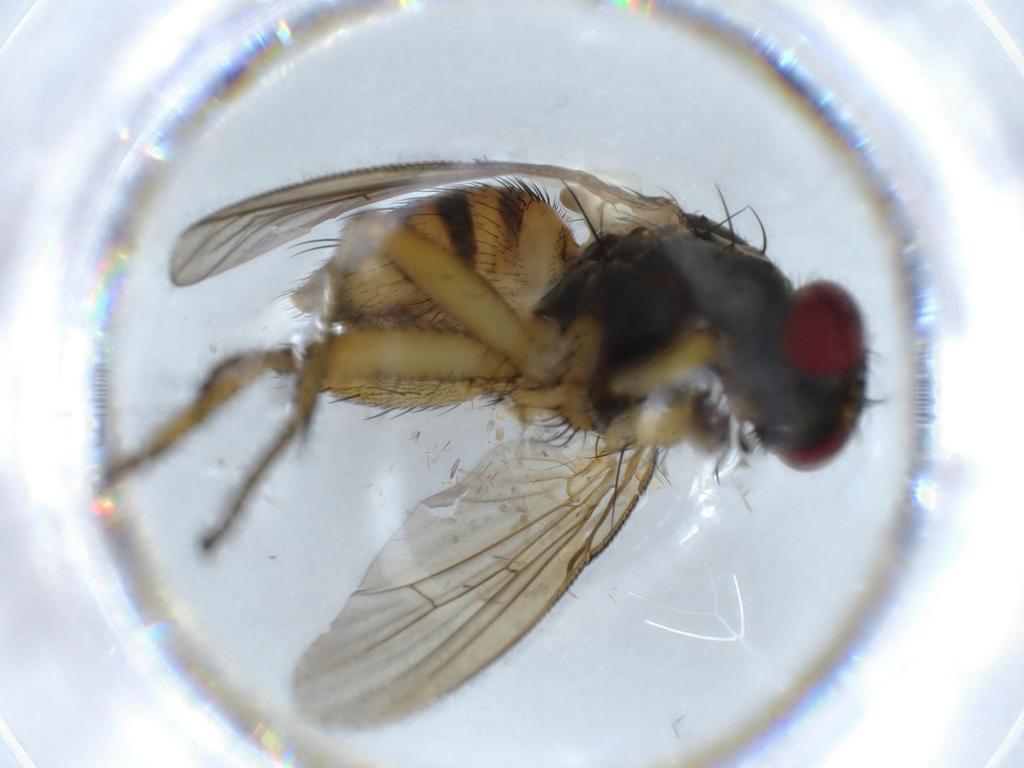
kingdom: Animalia
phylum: Arthropoda
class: Insecta
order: Diptera
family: Muscidae
